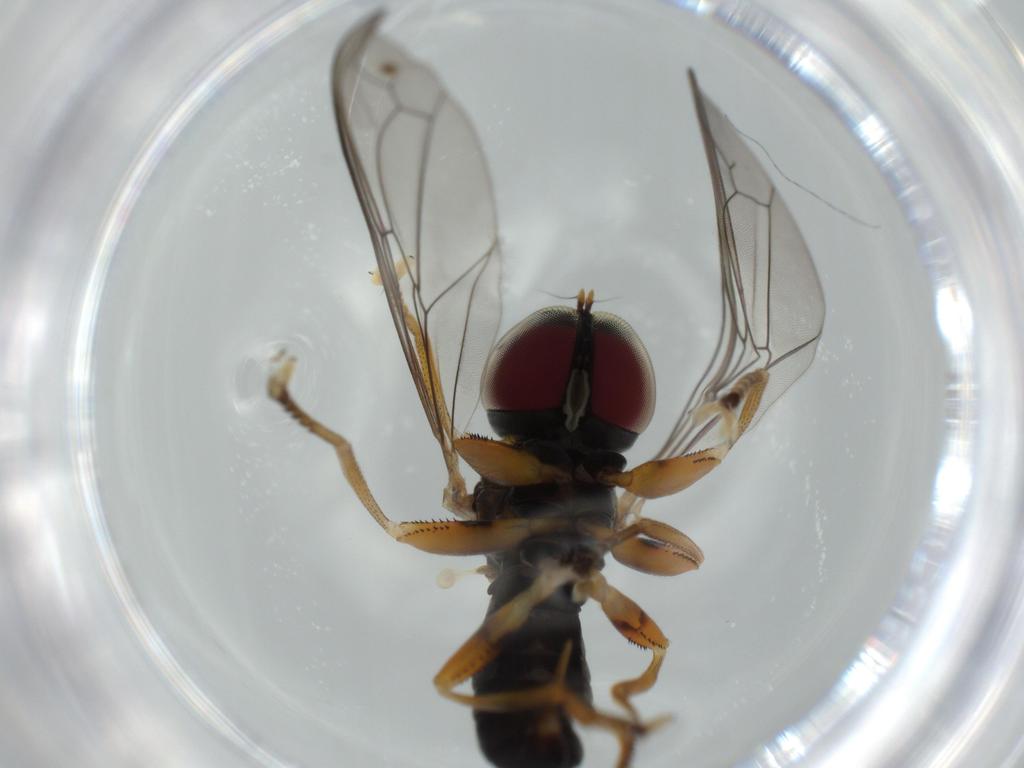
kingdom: Animalia
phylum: Arthropoda
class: Insecta
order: Diptera
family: Pipunculidae
